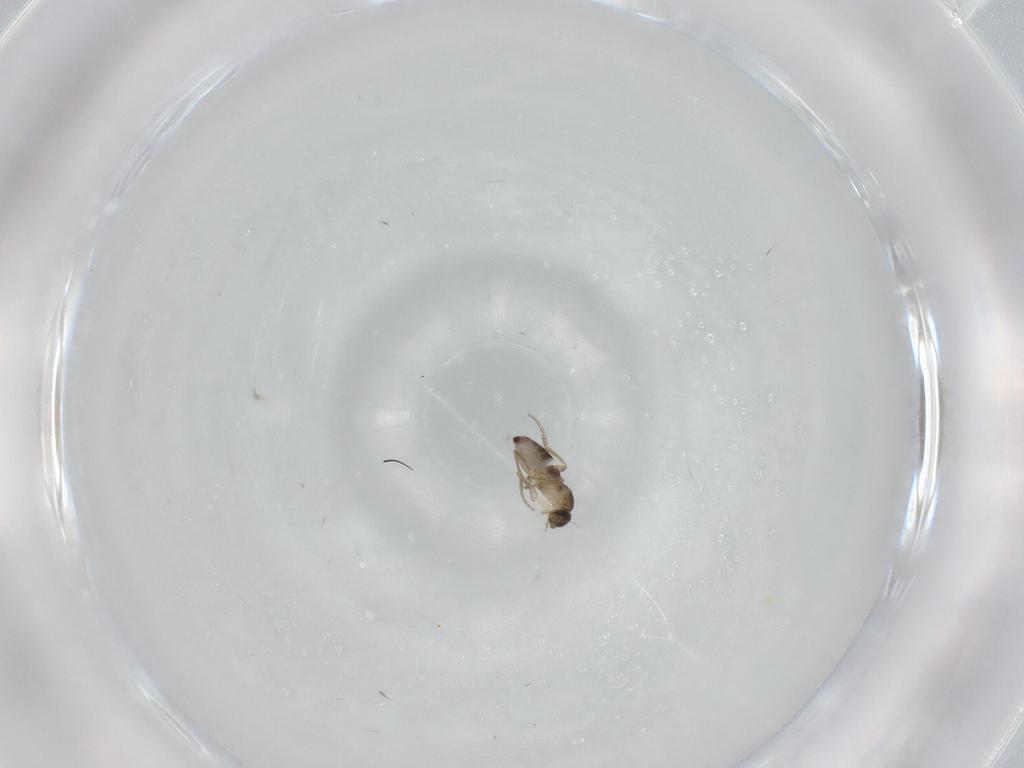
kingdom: Animalia
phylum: Arthropoda
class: Insecta
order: Diptera
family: Phoridae
